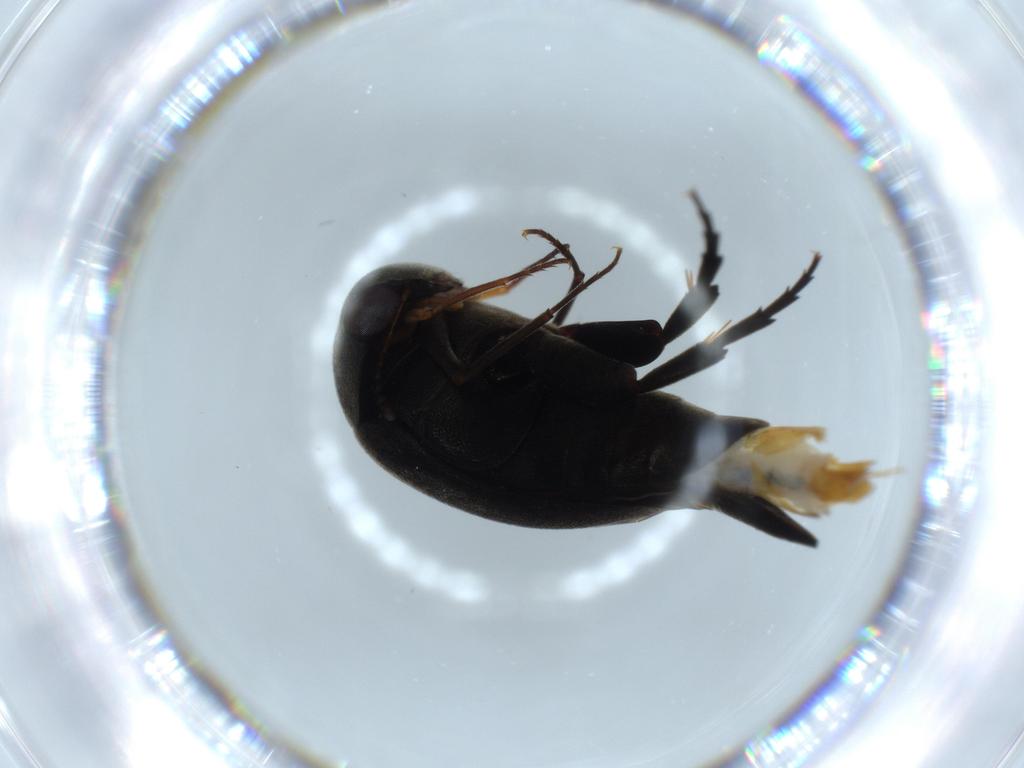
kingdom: Animalia
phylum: Arthropoda
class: Insecta
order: Coleoptera
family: Mordellidae
